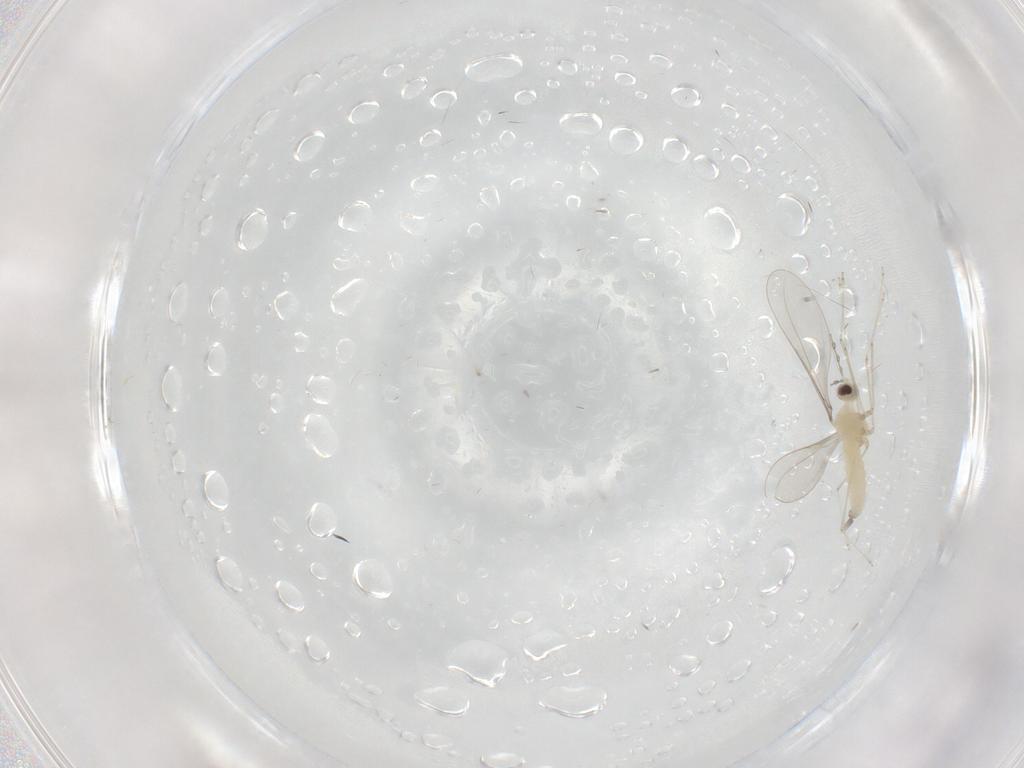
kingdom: Animalia
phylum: Arthropoda
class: Insecta
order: Diptera
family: Cecidomyiidae
